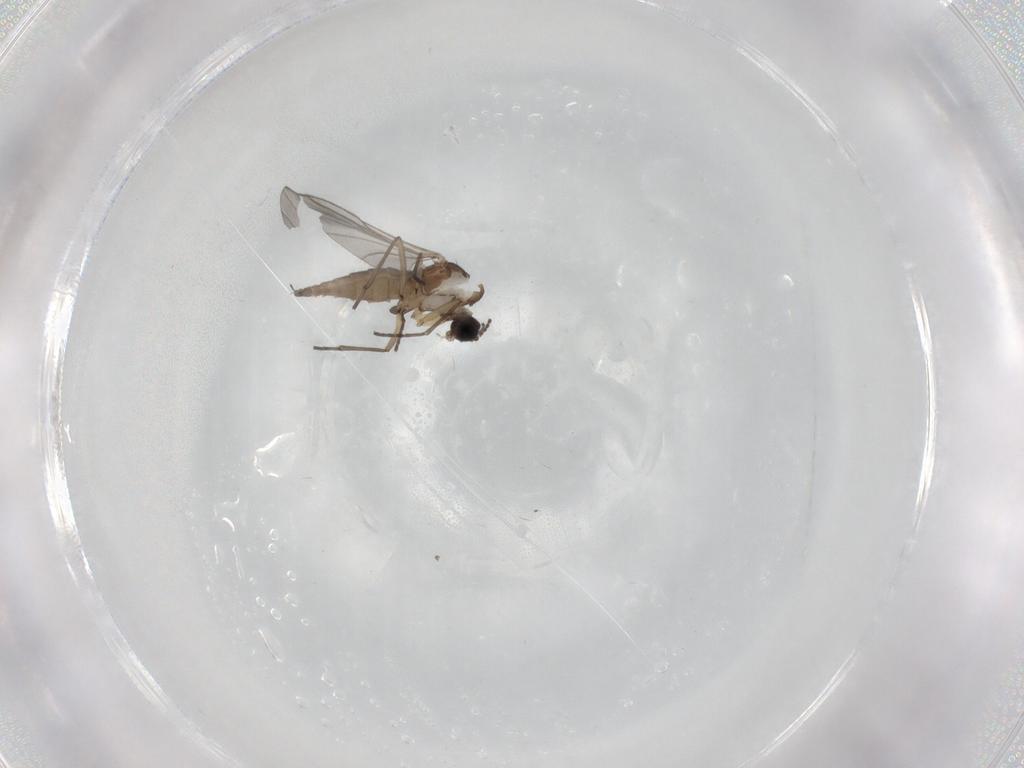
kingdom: Animalia
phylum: Arthropoda
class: Insecta
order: Diptera
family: Sciaridae
